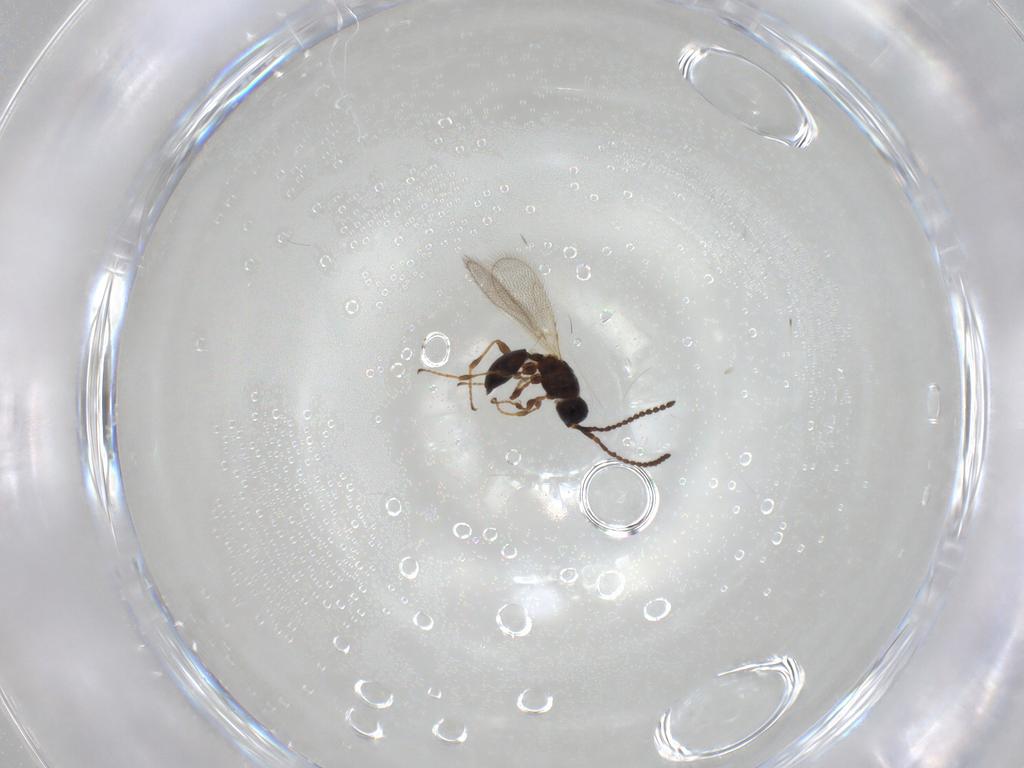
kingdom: Animalia
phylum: Arthropoda
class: Insecta
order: Hymenoptera
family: Diapriidae
